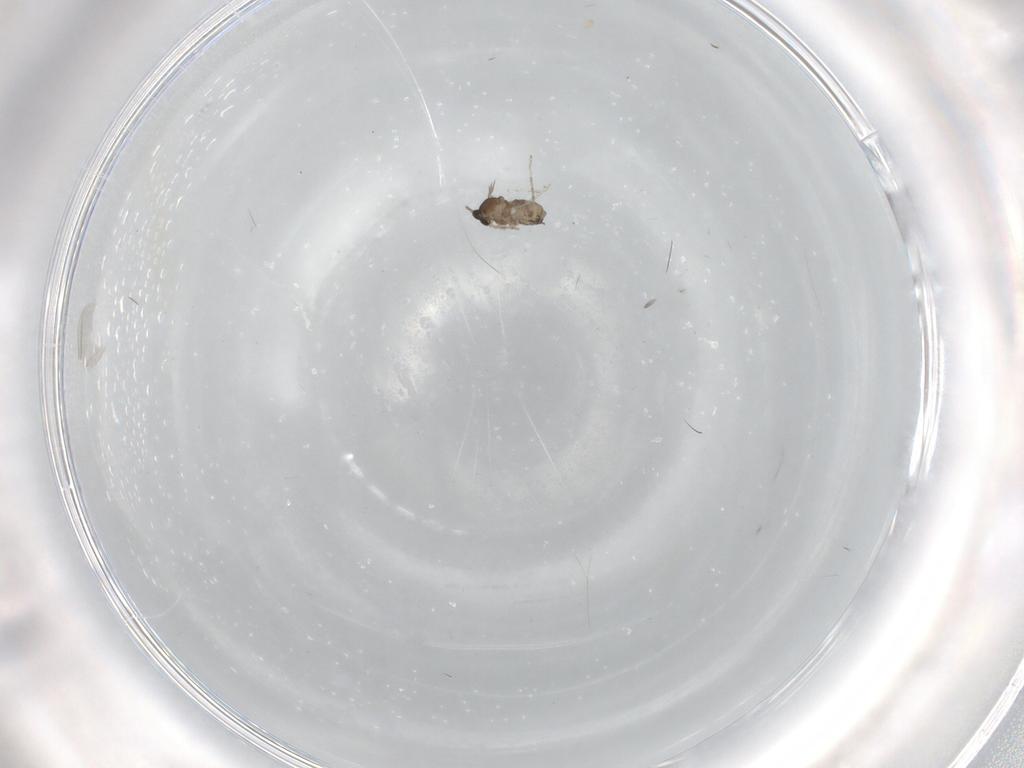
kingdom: Animalia
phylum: Arthropoda
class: Insecta
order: Diptera
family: Cecidomyiidae
